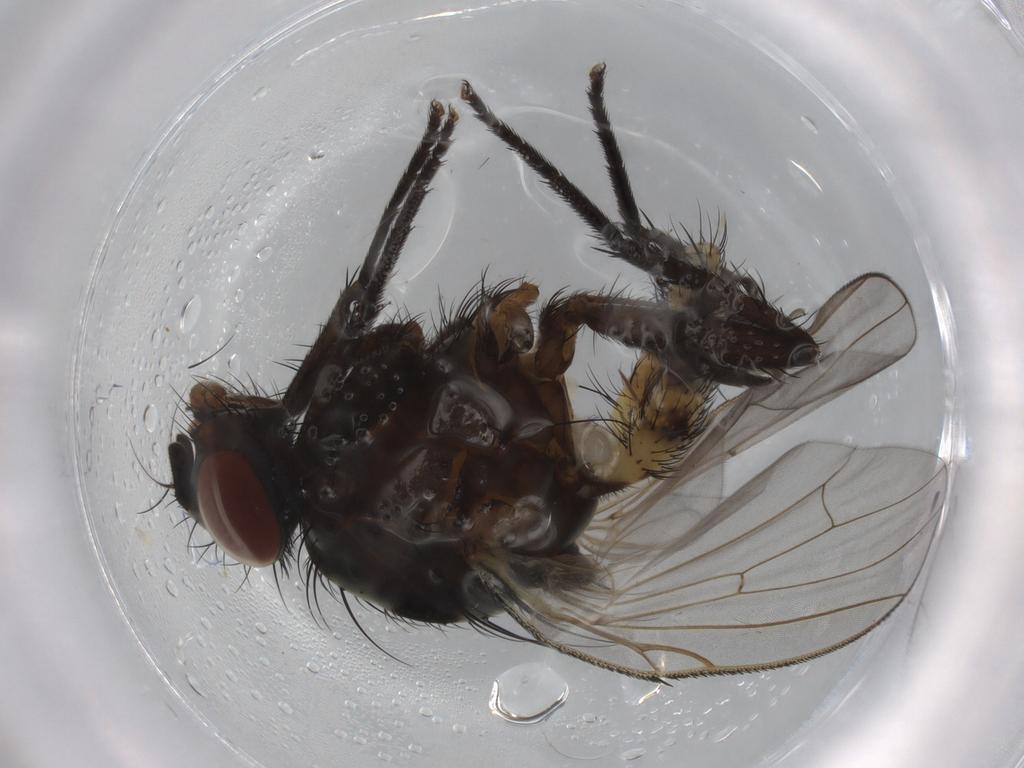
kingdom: Animalia
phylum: Arthropoda
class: Insecta
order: Diptera
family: Anthomyiidae
